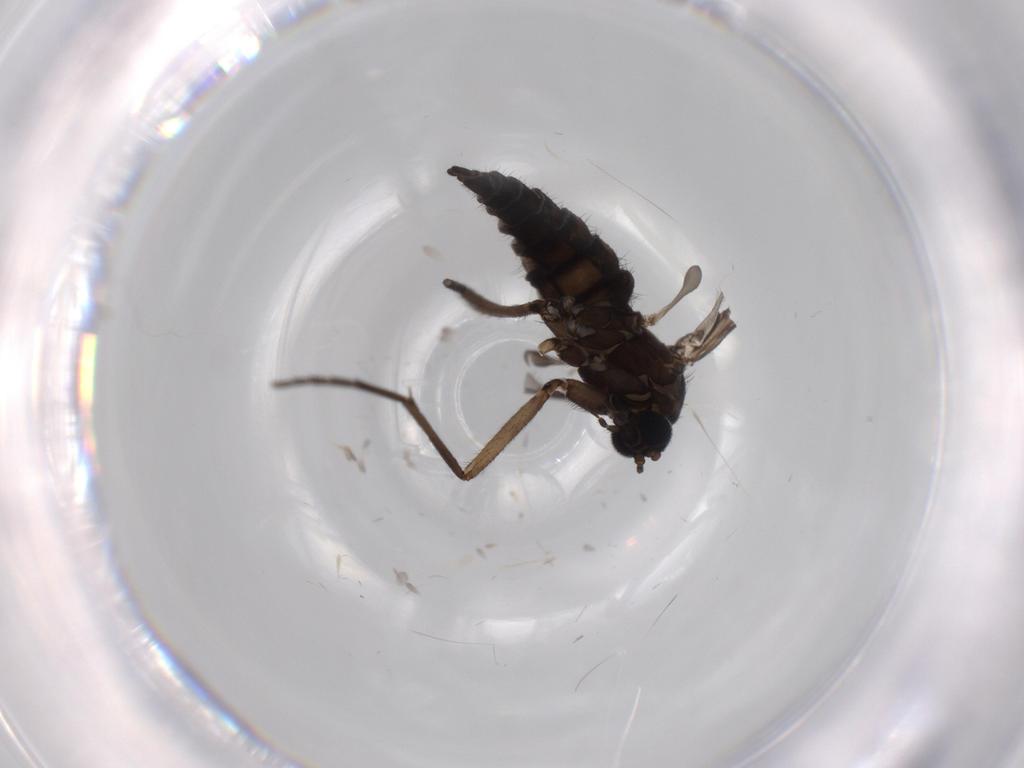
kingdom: Animalia
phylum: Arthropoda
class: Insecta
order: Diptera
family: Sciaridae
